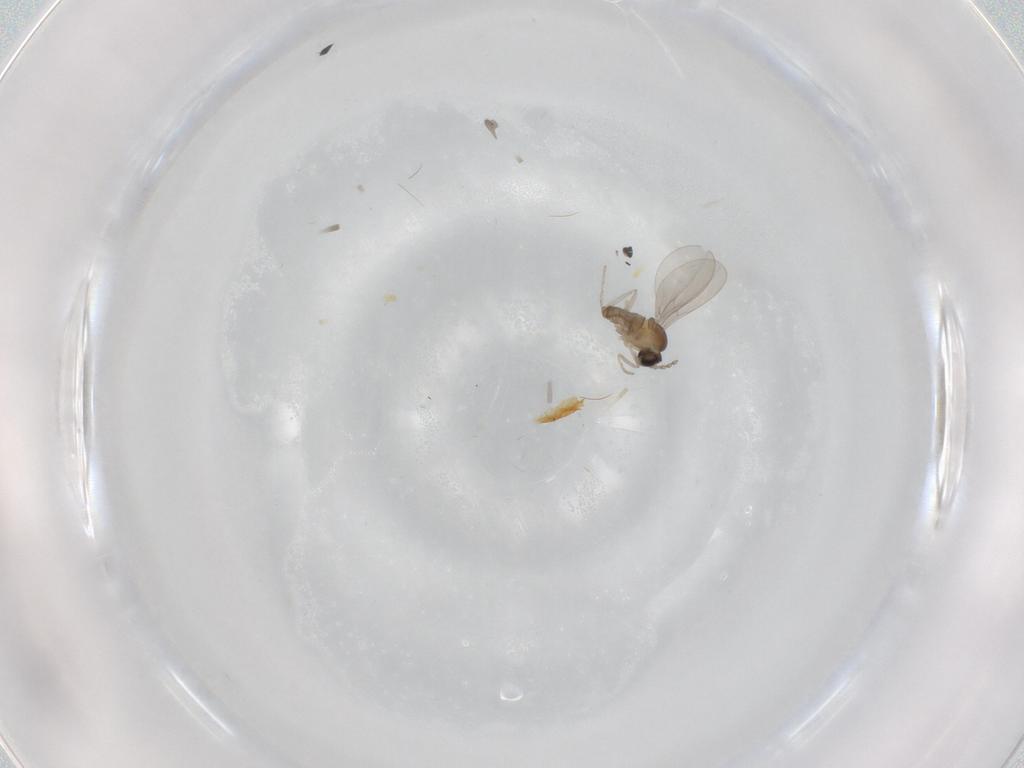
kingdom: Animalia
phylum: Arthropoda
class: Insecta
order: Diptera
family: Cecidomyiidae
